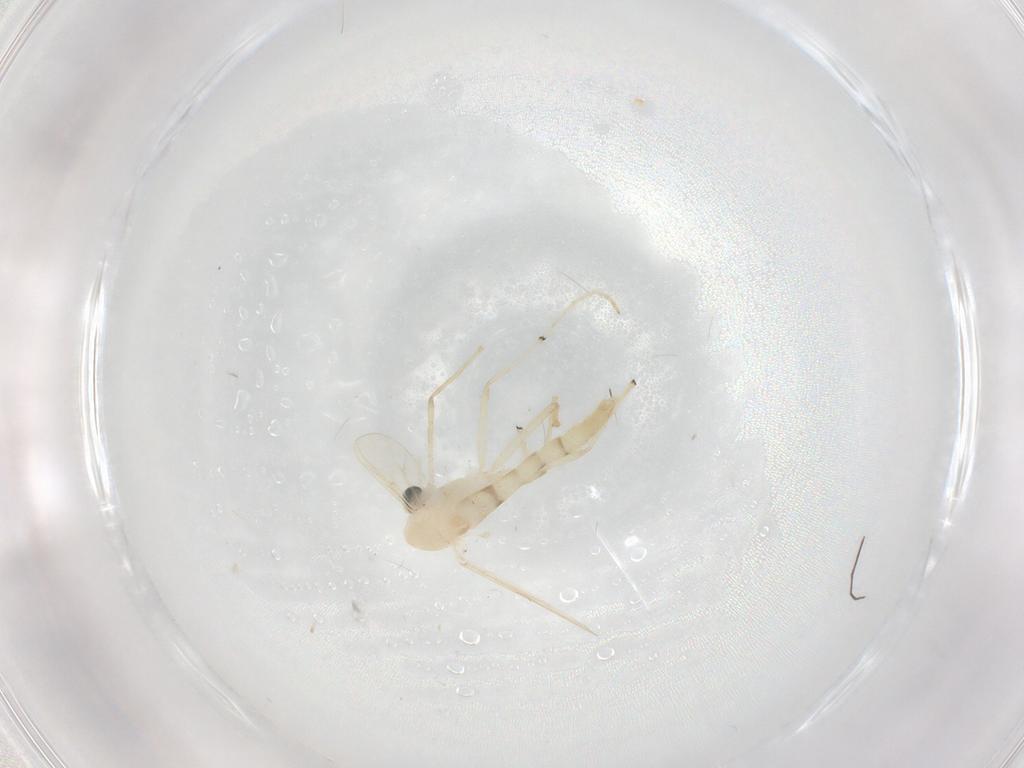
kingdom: Animalia
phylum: Arthropoda
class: Insecta
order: Diptera
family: Chironomidae
